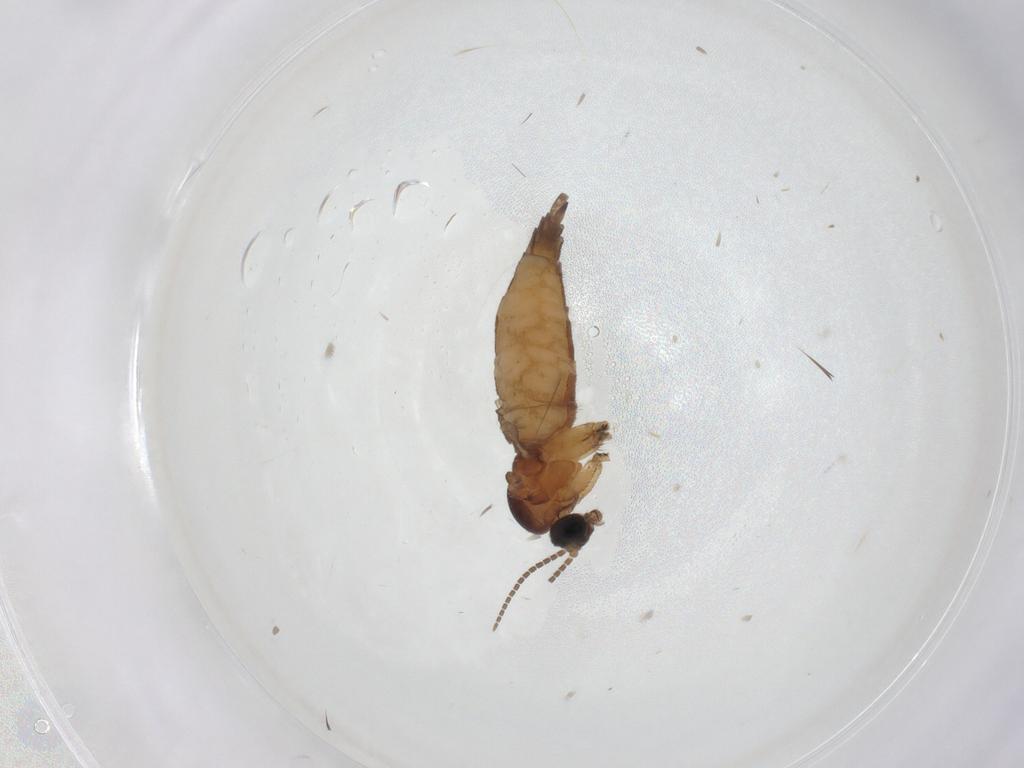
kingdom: Animalia
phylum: Arthropoda
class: Insecta
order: Diptera
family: Sciaridae
